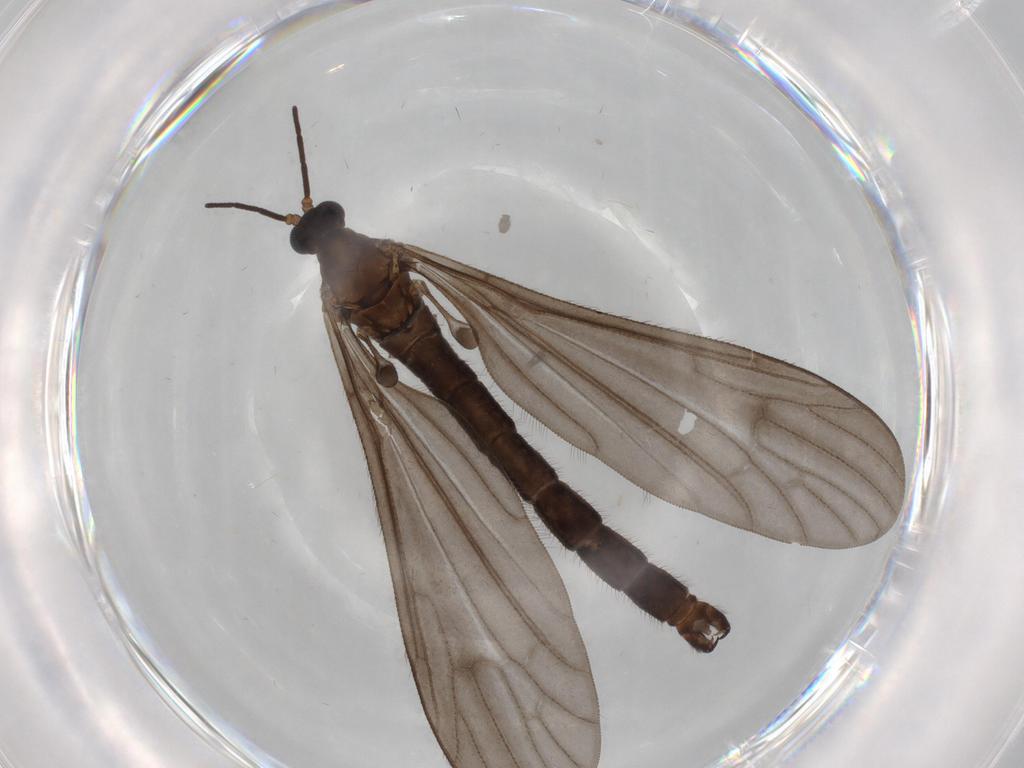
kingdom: Animalia
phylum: Arthropoda
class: Insecta
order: Diptera
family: Chironomidae
